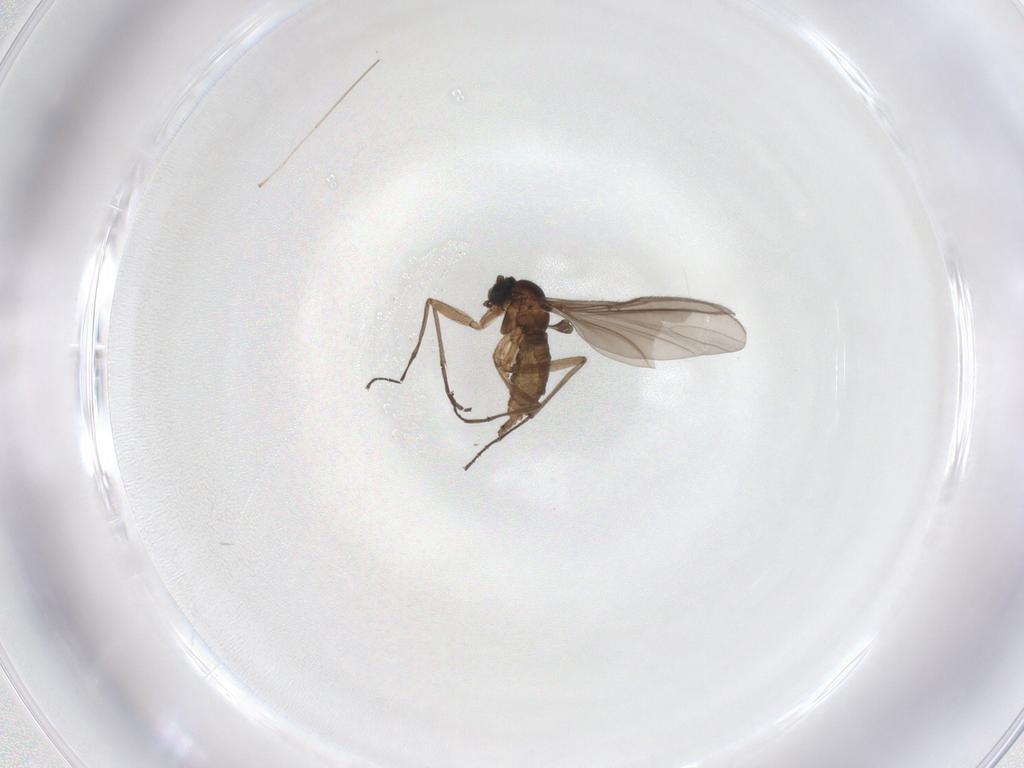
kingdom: Animalia
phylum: Arthropoda
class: Insecta
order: Diptera
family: Sciaridae
